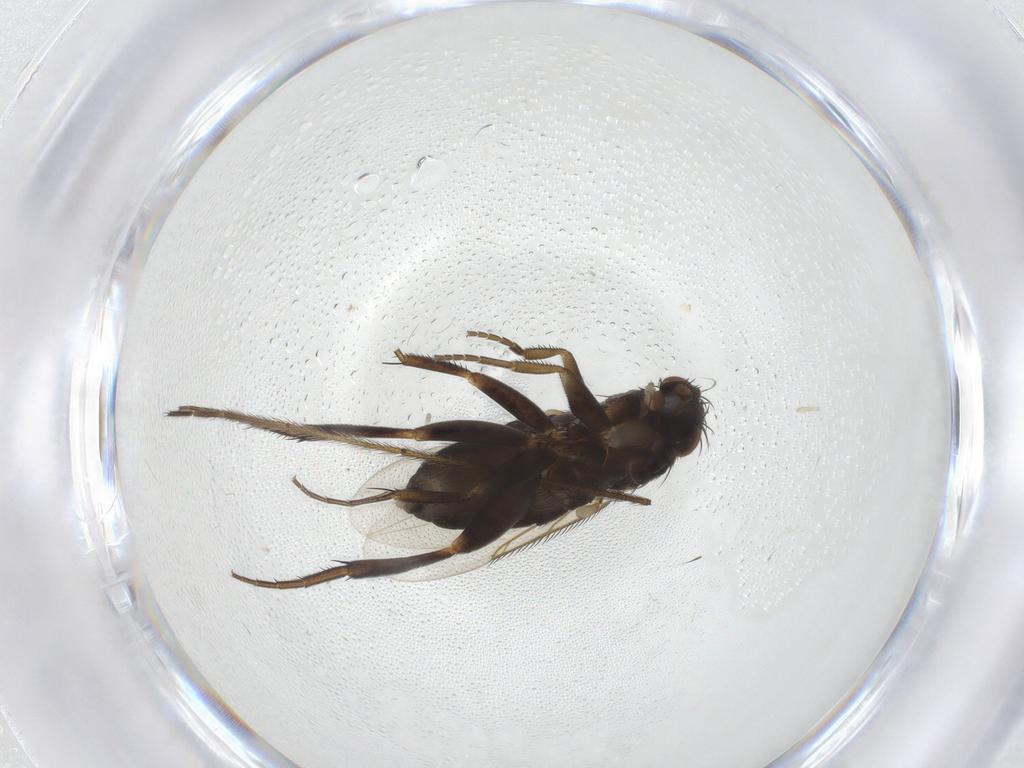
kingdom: Animalia
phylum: Arthropoda
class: Insecta
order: Diptera
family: Phoridae
